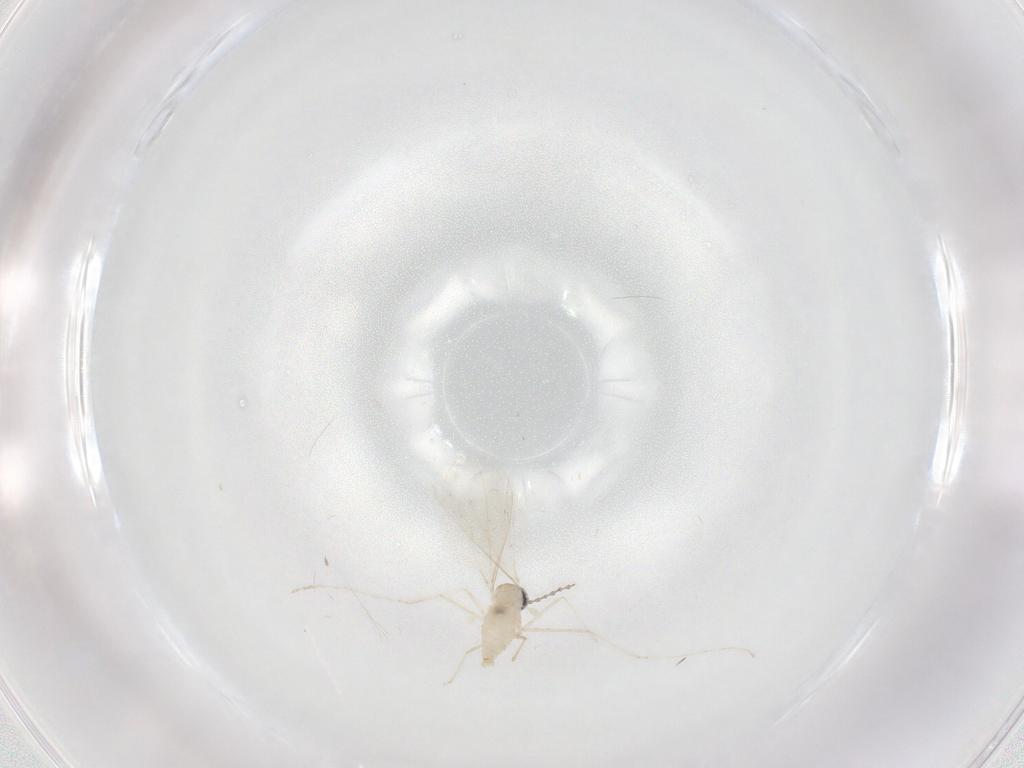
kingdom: Animalia
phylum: Arthropoda
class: Insecta
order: Diptera
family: Cecidomyiidae
